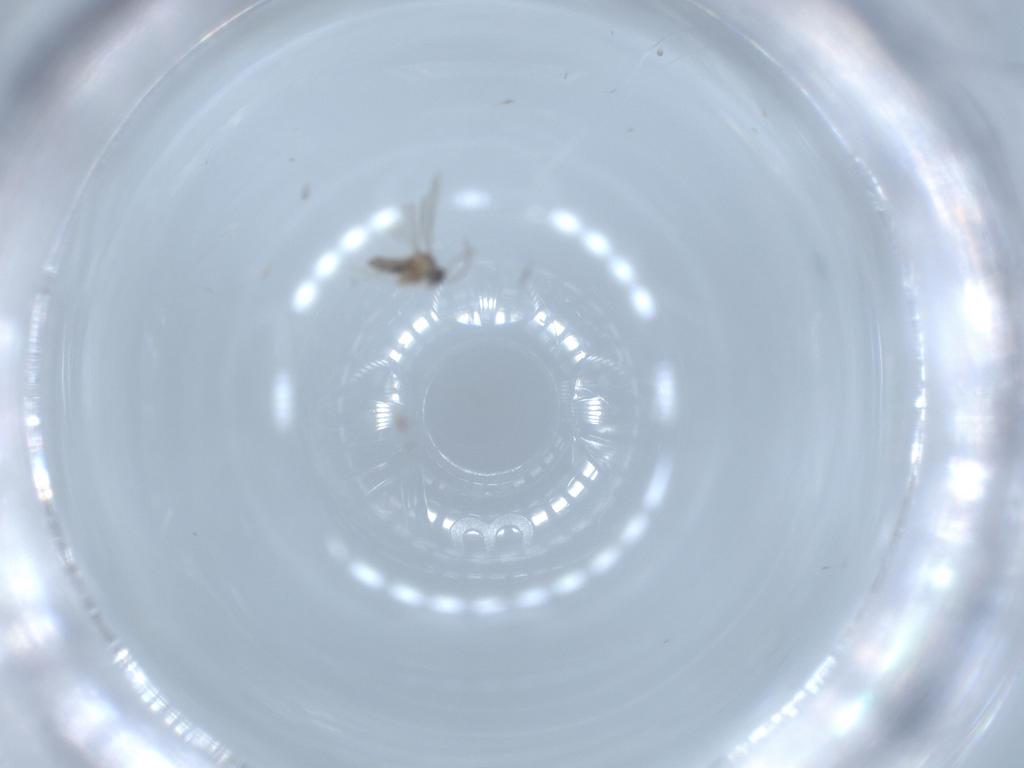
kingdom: Animalia
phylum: Arthropoda
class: Insecta
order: Diptera
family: Sciaridae
